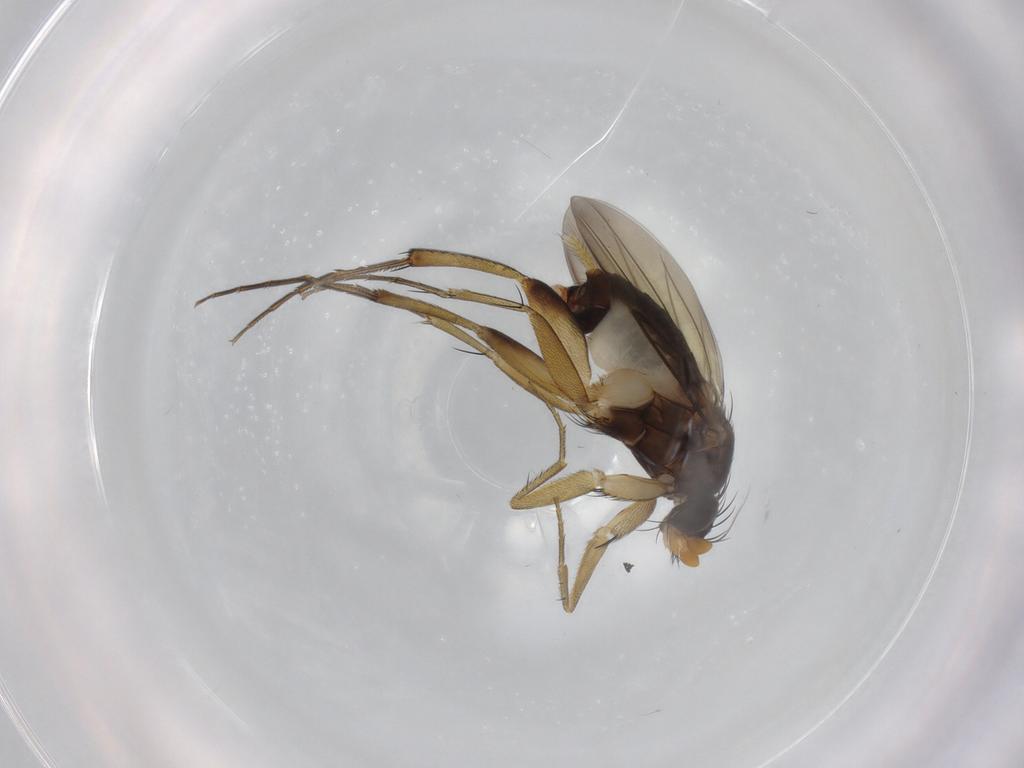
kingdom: Animalia
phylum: Arthropoda
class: Insecta
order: Diptera
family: Phoridae
